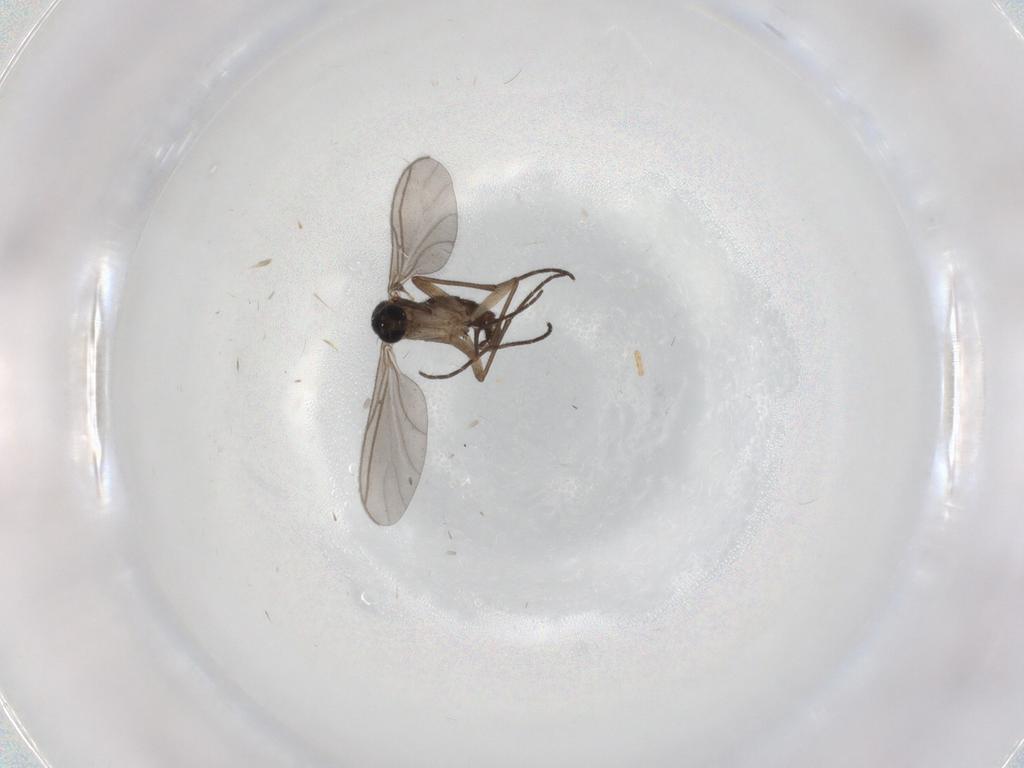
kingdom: Animalia
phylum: Arthropoda
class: Insecta
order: Diptera
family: Sciaridae
